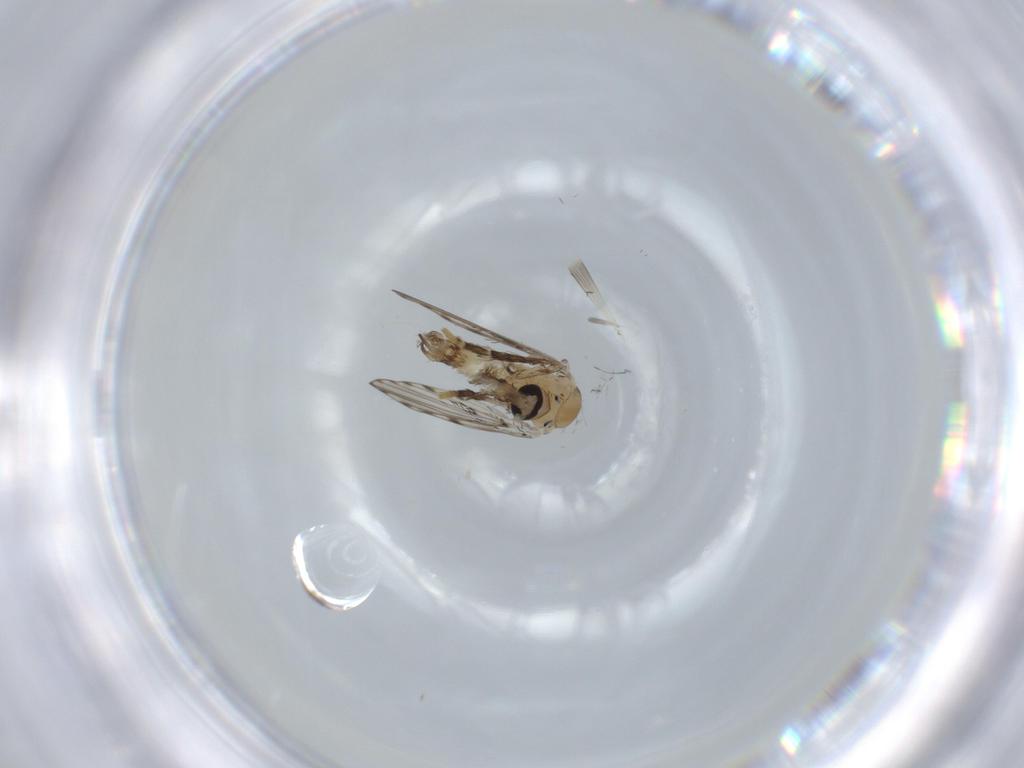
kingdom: Animalia
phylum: Arthropoda
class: Insecta
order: Diptera
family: Psychodidae
